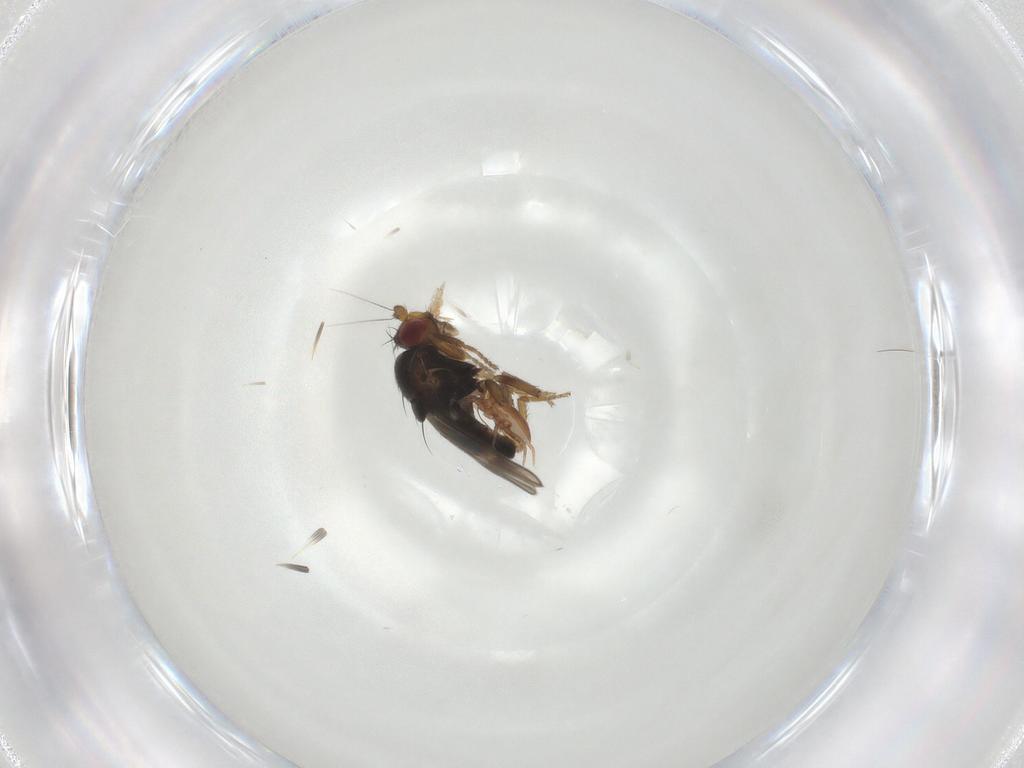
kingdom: Animalia
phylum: Arthropoda
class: Insecta
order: Diptera
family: Sphaeroceridae
